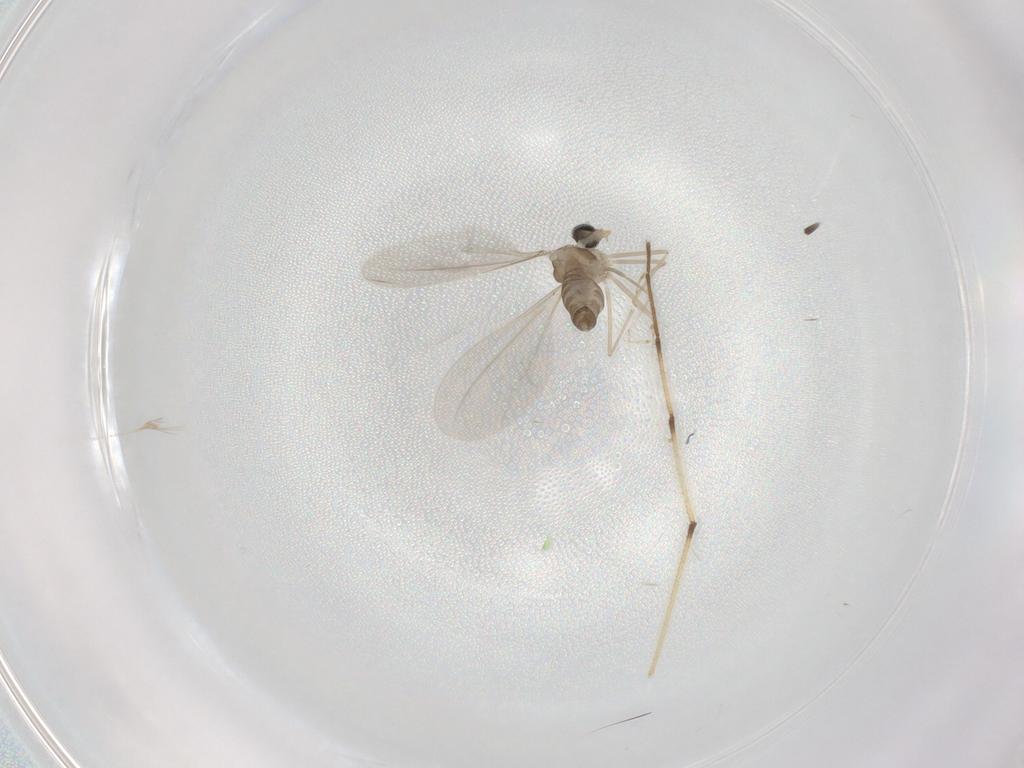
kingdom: Animalia
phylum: Arthropoda
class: Insecta
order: Diptera
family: Cecidomyiidae
